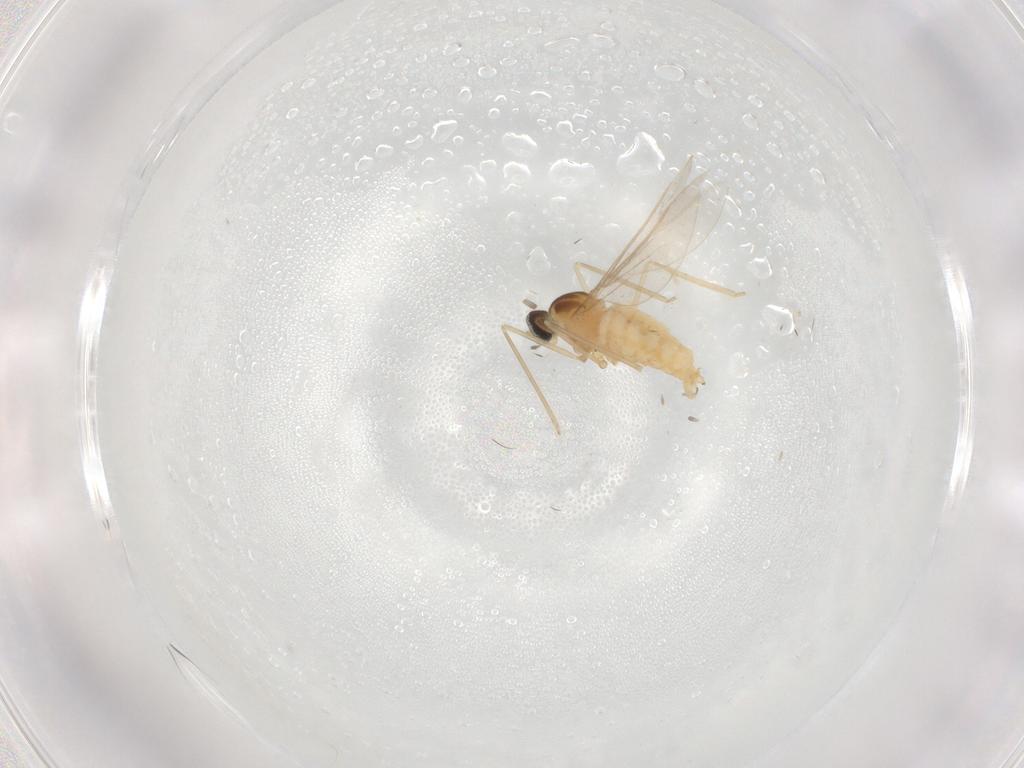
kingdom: Animalia
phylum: Arthropoda
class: Insecta
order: Diptera
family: Cecidomyiidae
